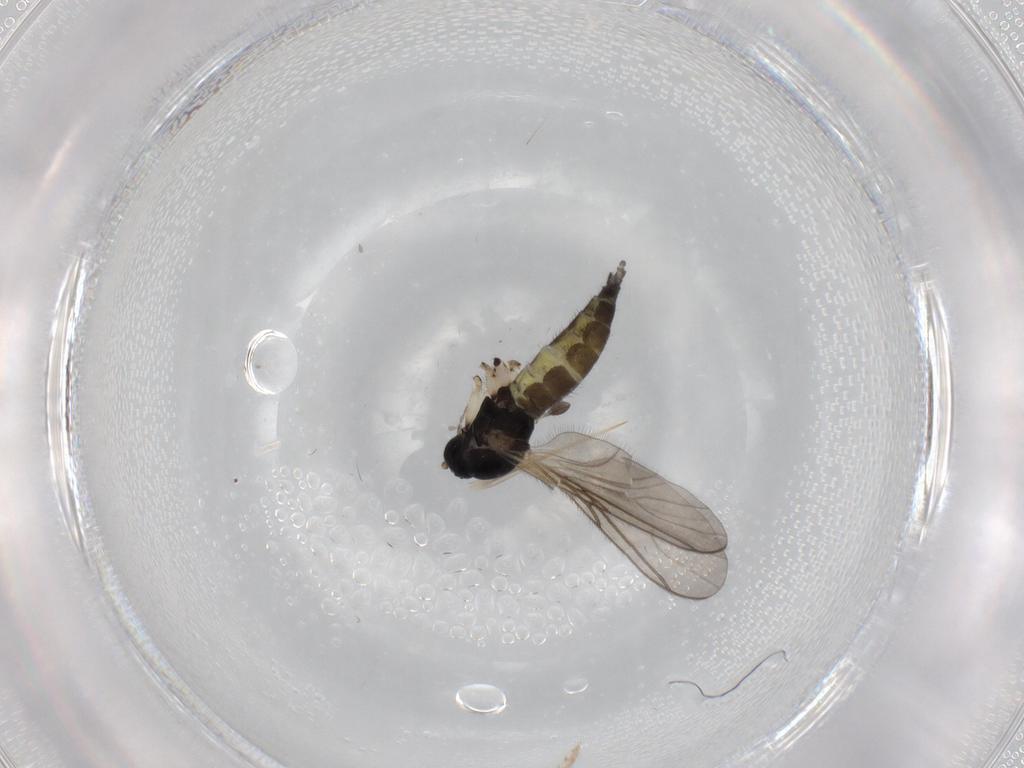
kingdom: Animalia
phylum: Arthropoda
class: Insecta
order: Diptera
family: Sciaridae
